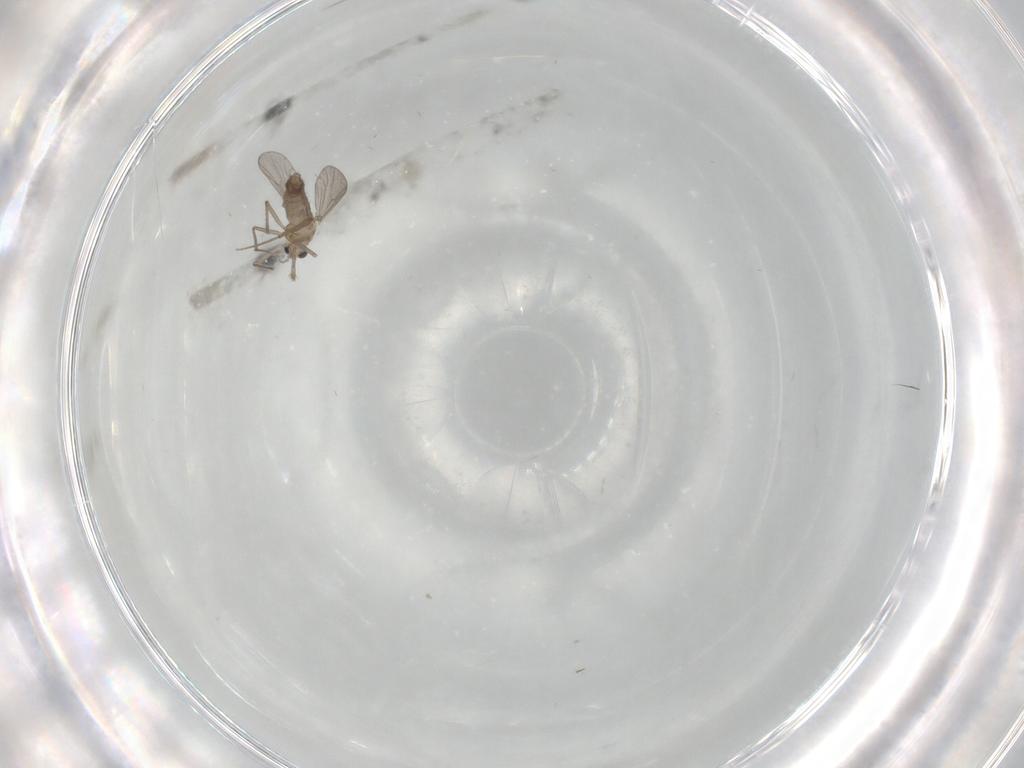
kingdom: Animalia
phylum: Arthropoda
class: Insecta
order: Diptera
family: Chironomidae
